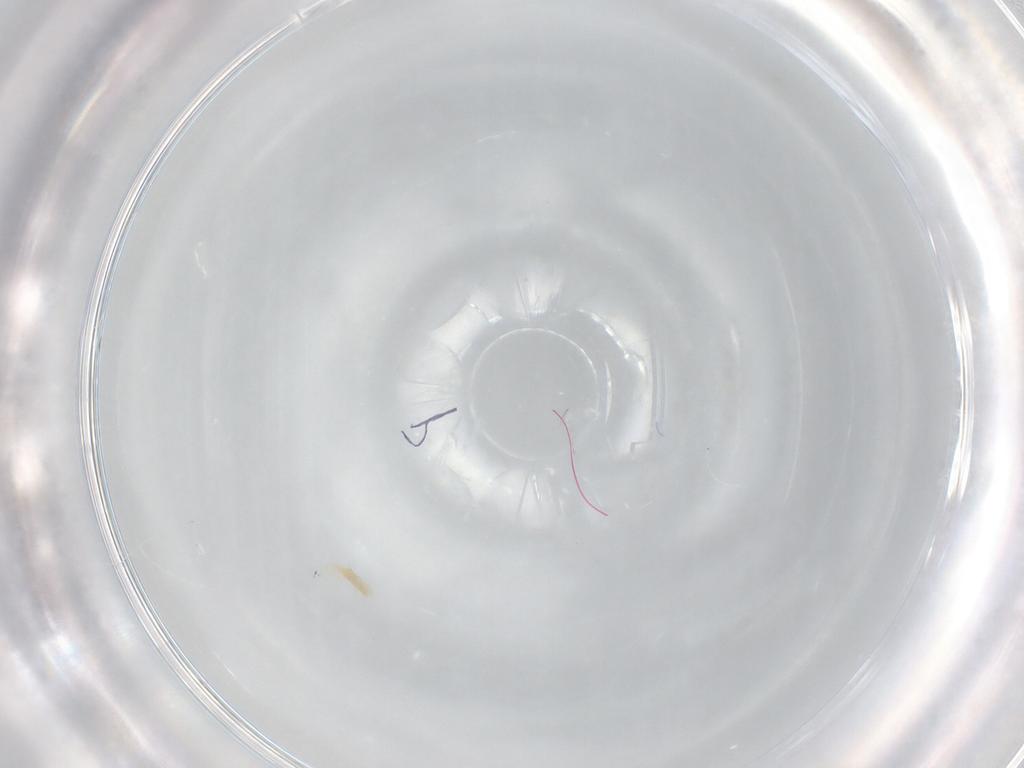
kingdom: Animalia
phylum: Arthropoda
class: Arachnida
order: Trombidiformes
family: Tetranychidae
